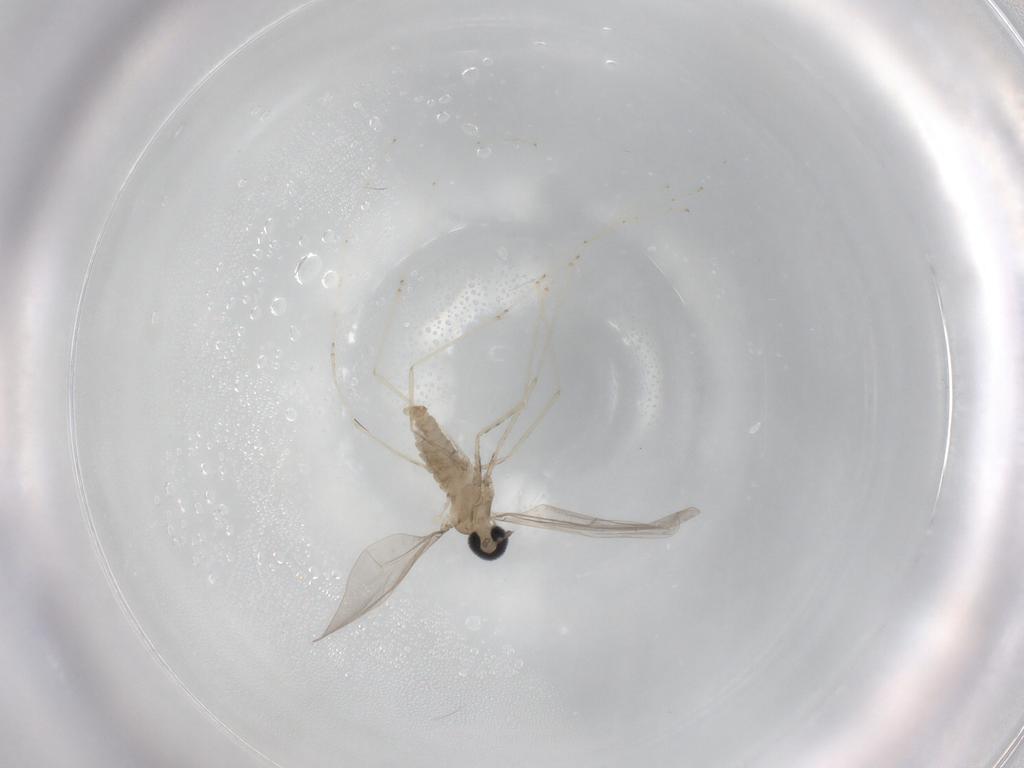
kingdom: Animalia
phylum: Arthropoda
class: Insecta
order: Diptera
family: Cecidomyiidae
